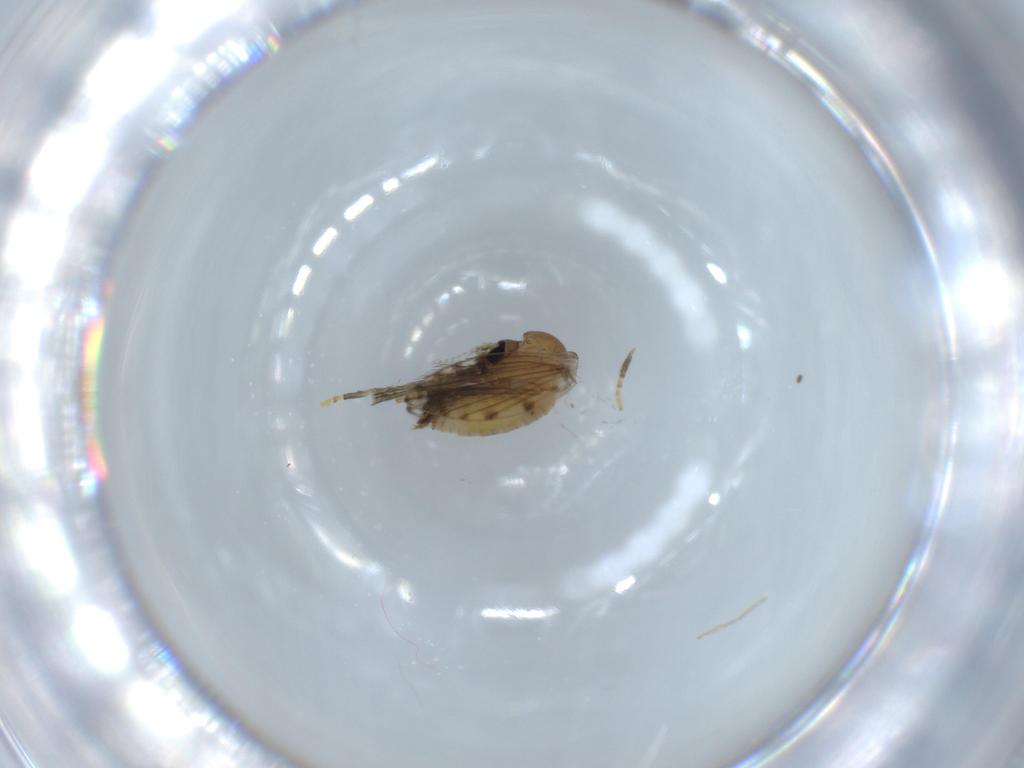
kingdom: Animalia
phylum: Arthropoda
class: Insecta
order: Diptera
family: Psychodidae
